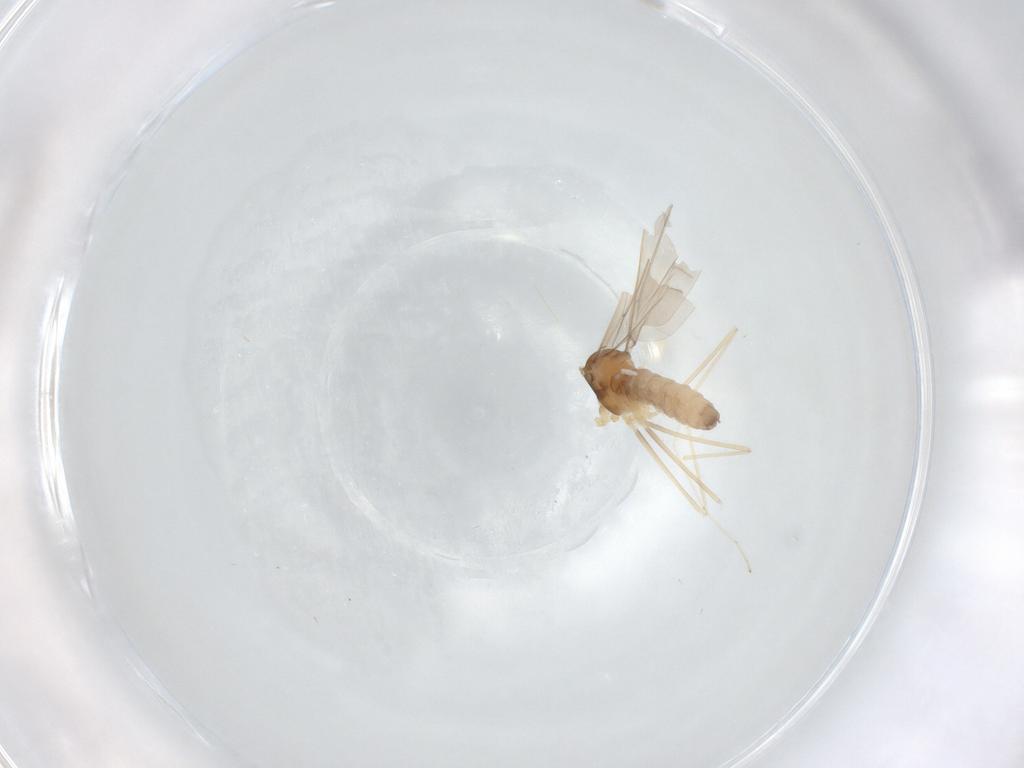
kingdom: Animalia
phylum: Arthropoda
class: Insecta
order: Diptera
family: Cecidomyiidae
